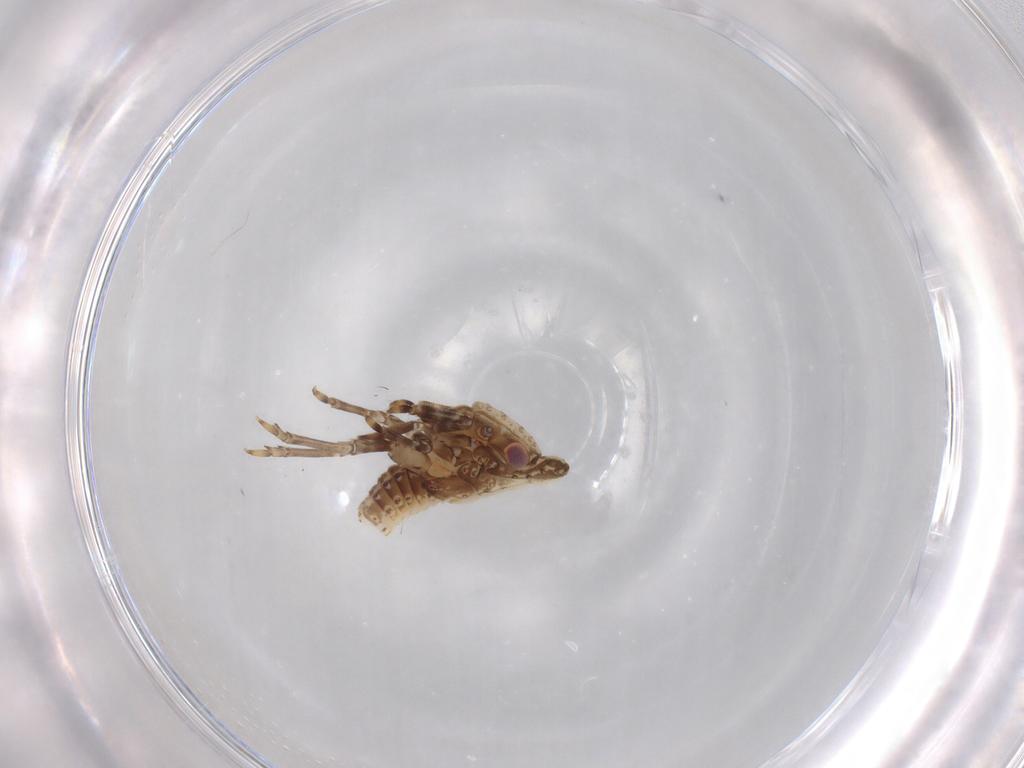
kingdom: Animalia
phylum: Arthropoda
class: Insecta
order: Hemiptera
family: Fulgoroidea_incertae_sedis
